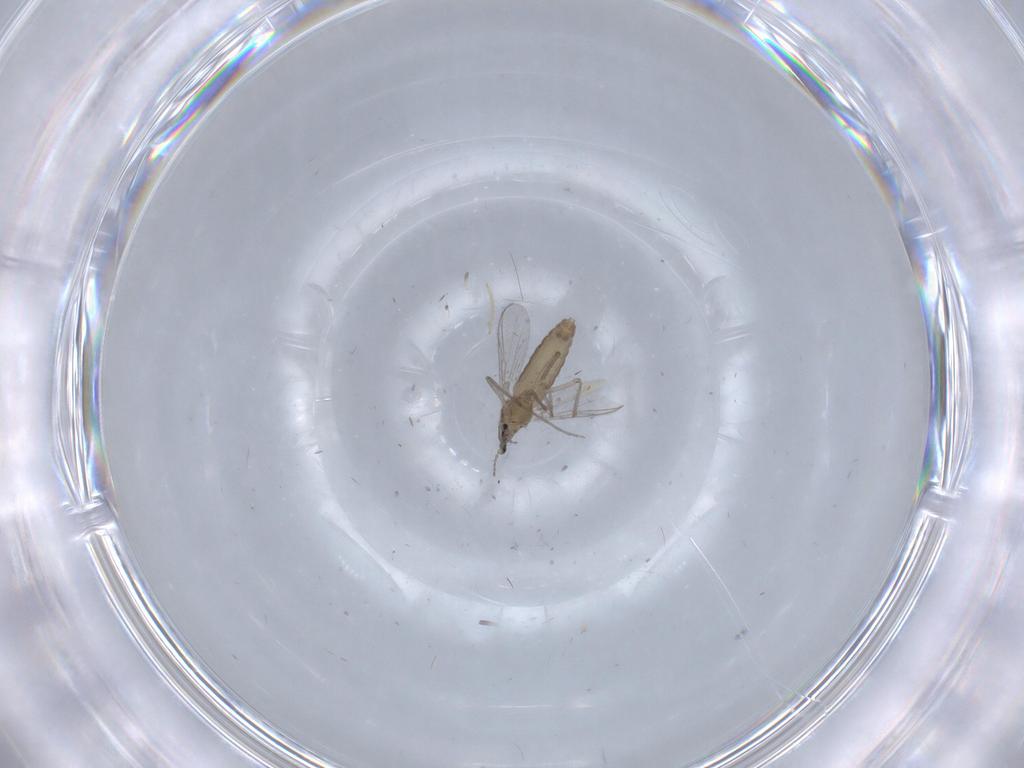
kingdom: Animalia
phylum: Arthropoda
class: Insecta
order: Diptera
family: Chironomidae
